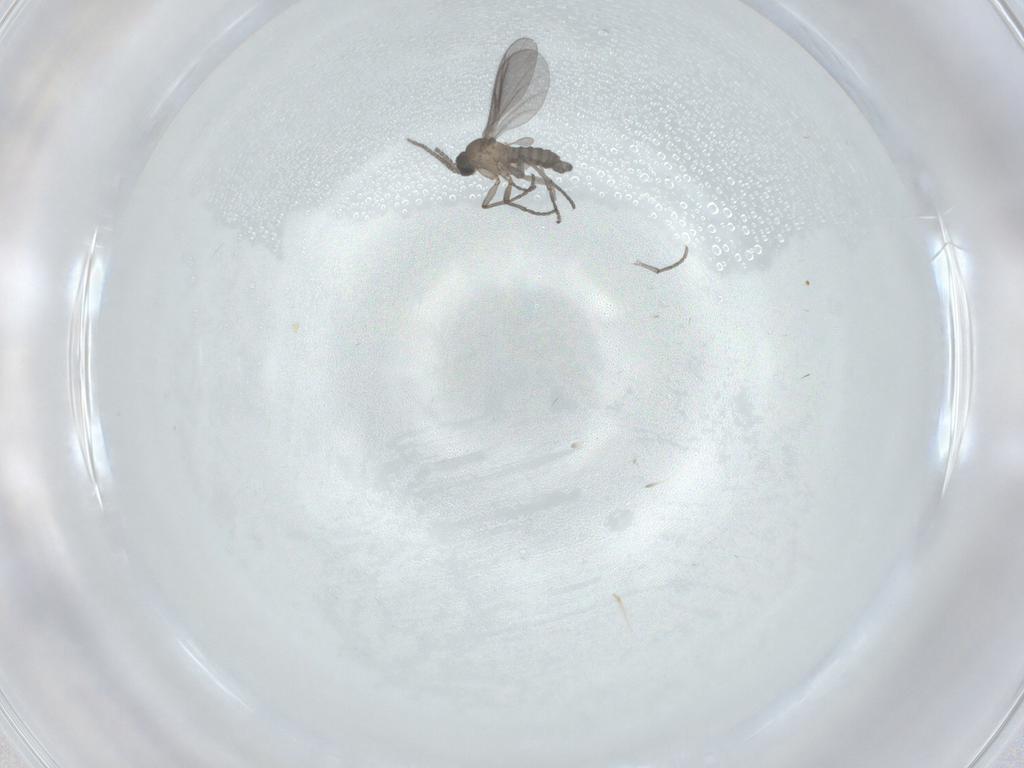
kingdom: Animalia
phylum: Arthropoda
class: Insecta
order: Diptera
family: Sciaridae
